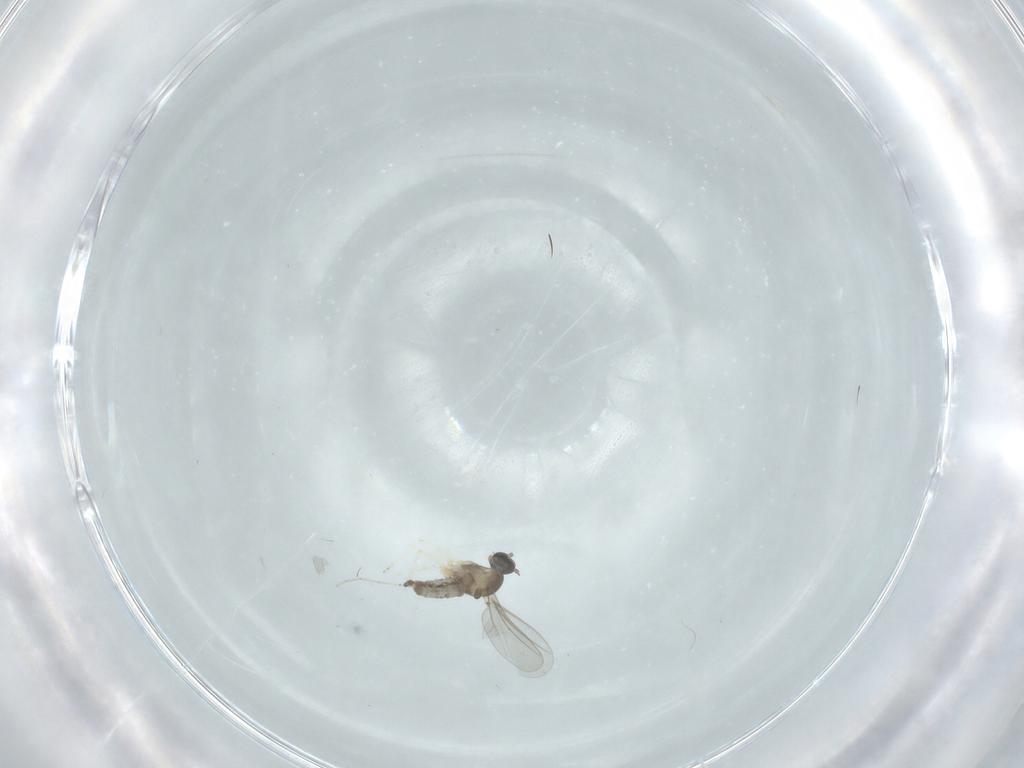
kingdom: Animalia
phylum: Arthropoda
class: Insecta
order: Diptera
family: Cecidomyiidae
